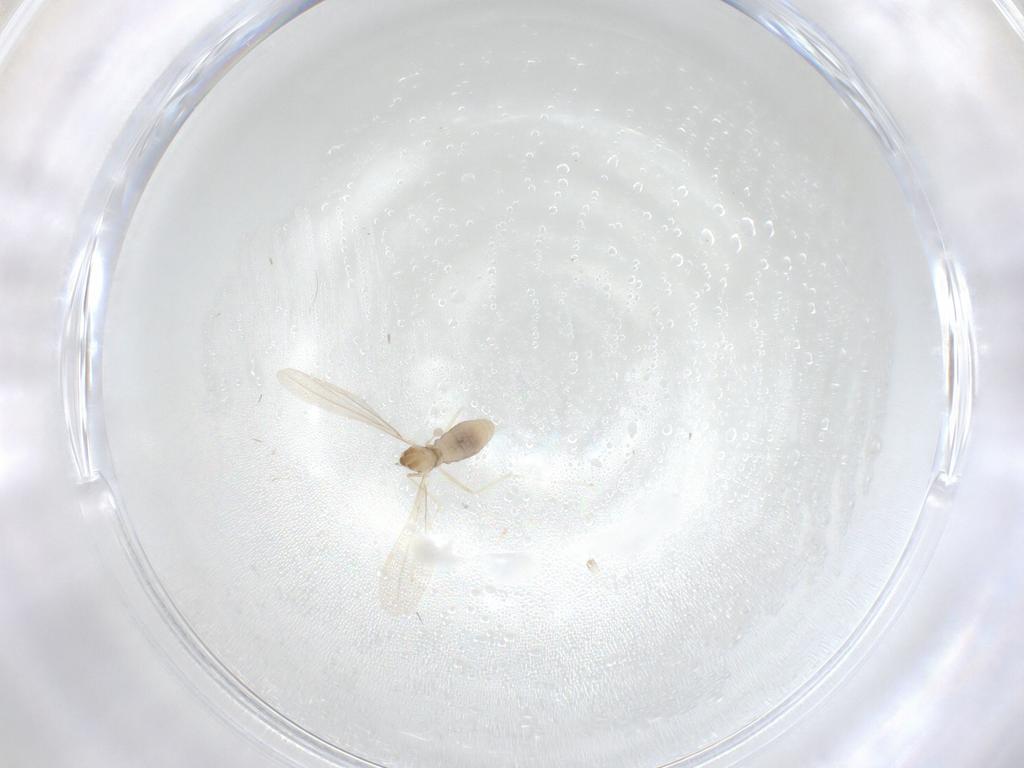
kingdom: Animalia
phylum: Arthropoda
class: Insecta
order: Diptera
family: Cecidomyiidae
